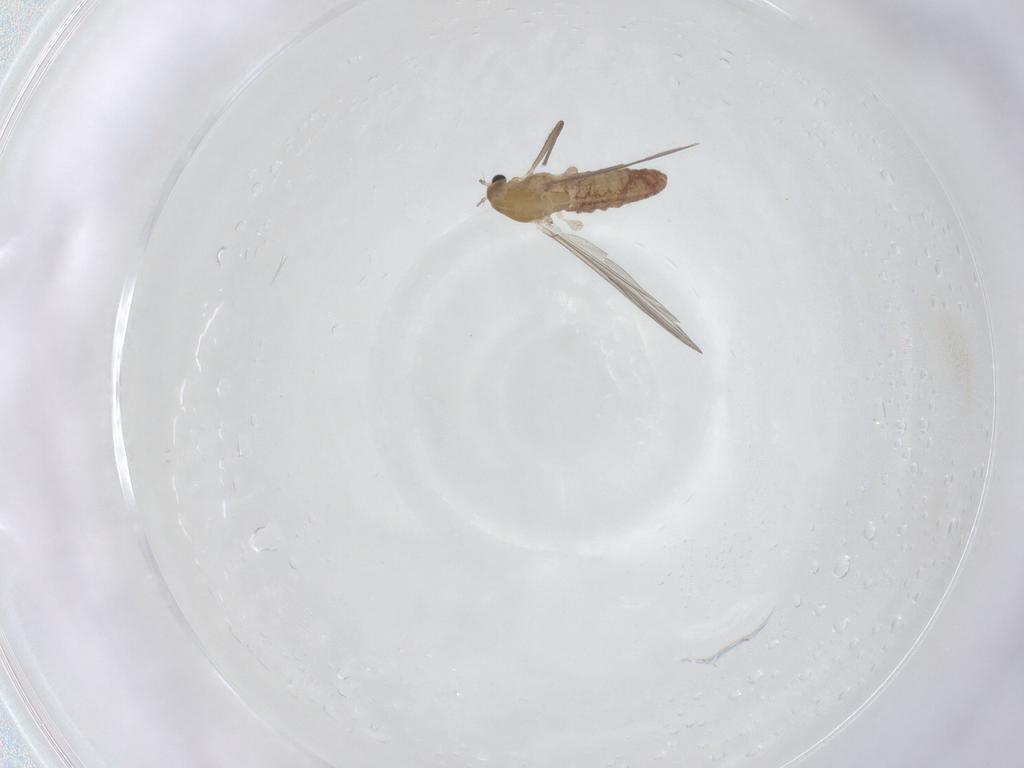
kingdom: Animalia
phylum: Arthropoda
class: Insecta
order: Diptera
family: Chironomidae
